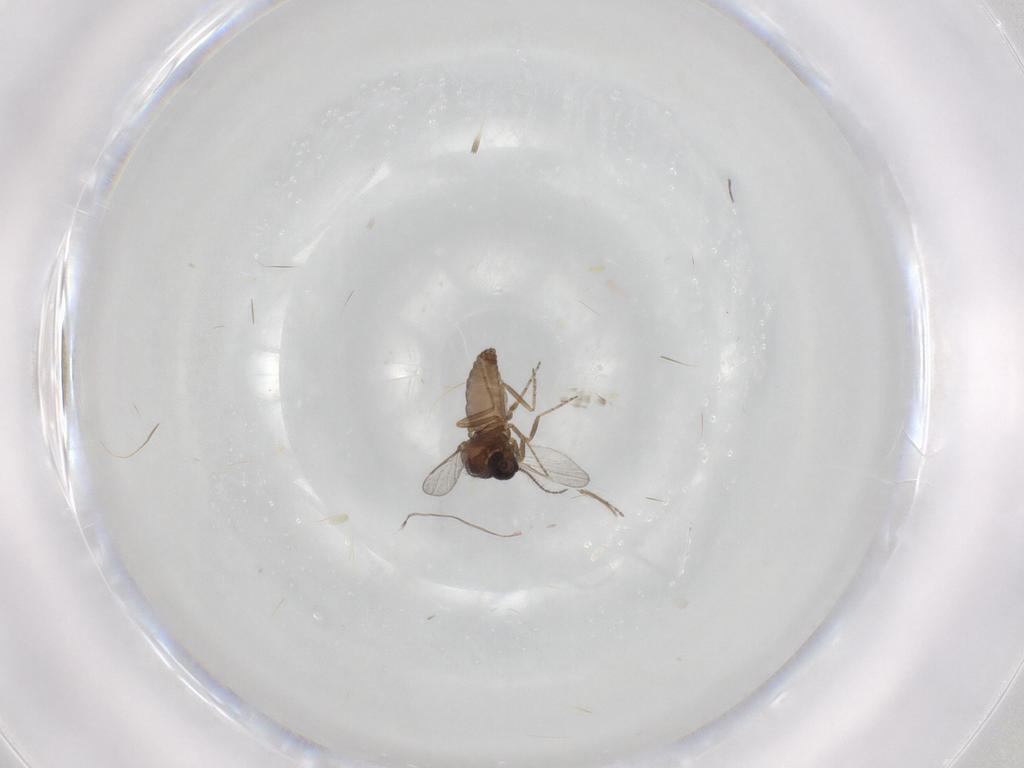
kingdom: Animalia
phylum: Arthropoda
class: Insecta
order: Diptera
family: Ceratopogonidae
